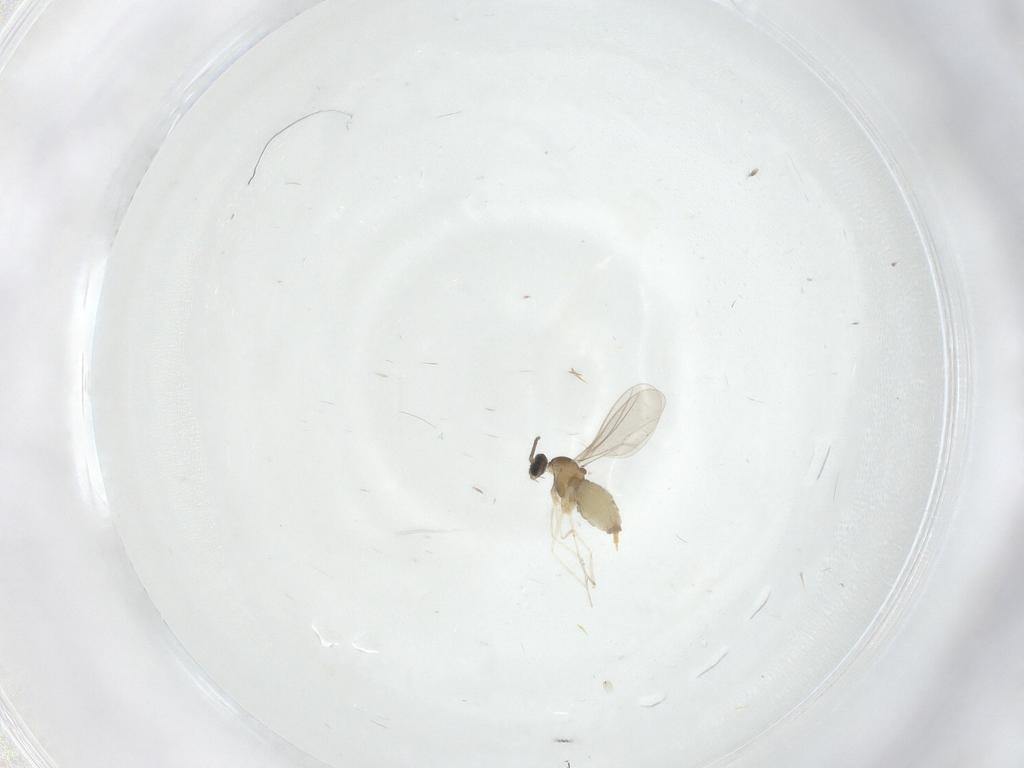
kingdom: Animalia
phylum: Arthropoda
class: Insecta
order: Diptera
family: Cecidomyiidae
